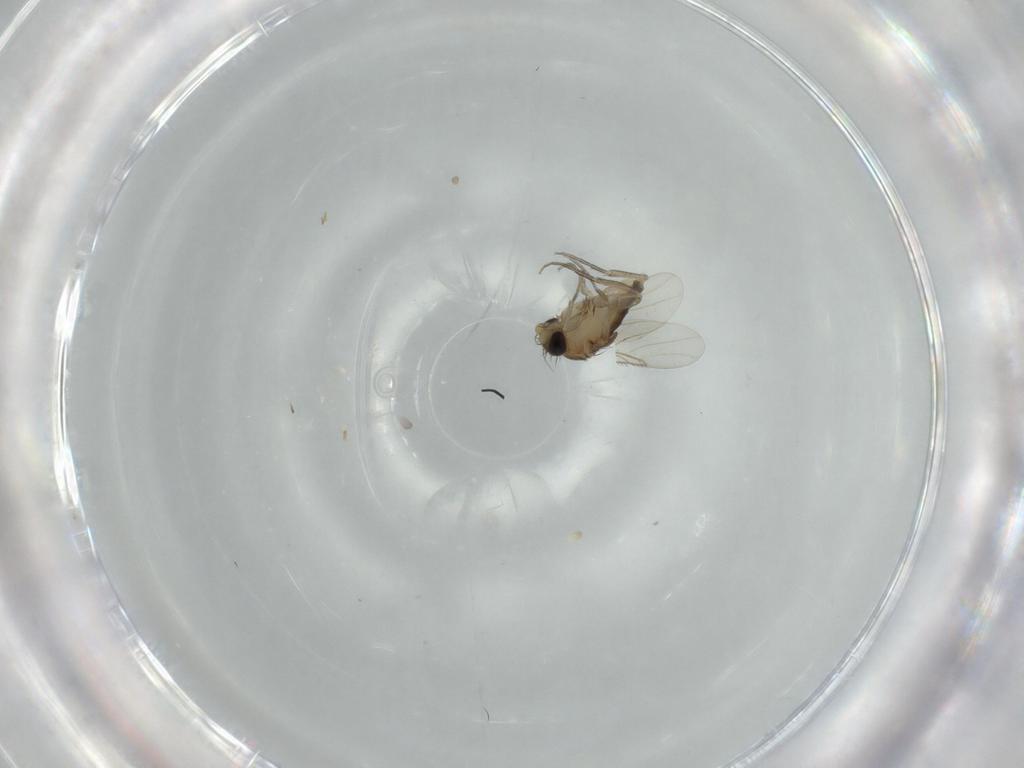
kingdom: Animalia
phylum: Arthropoda
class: Insecta
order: Diptera
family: Phoridae
